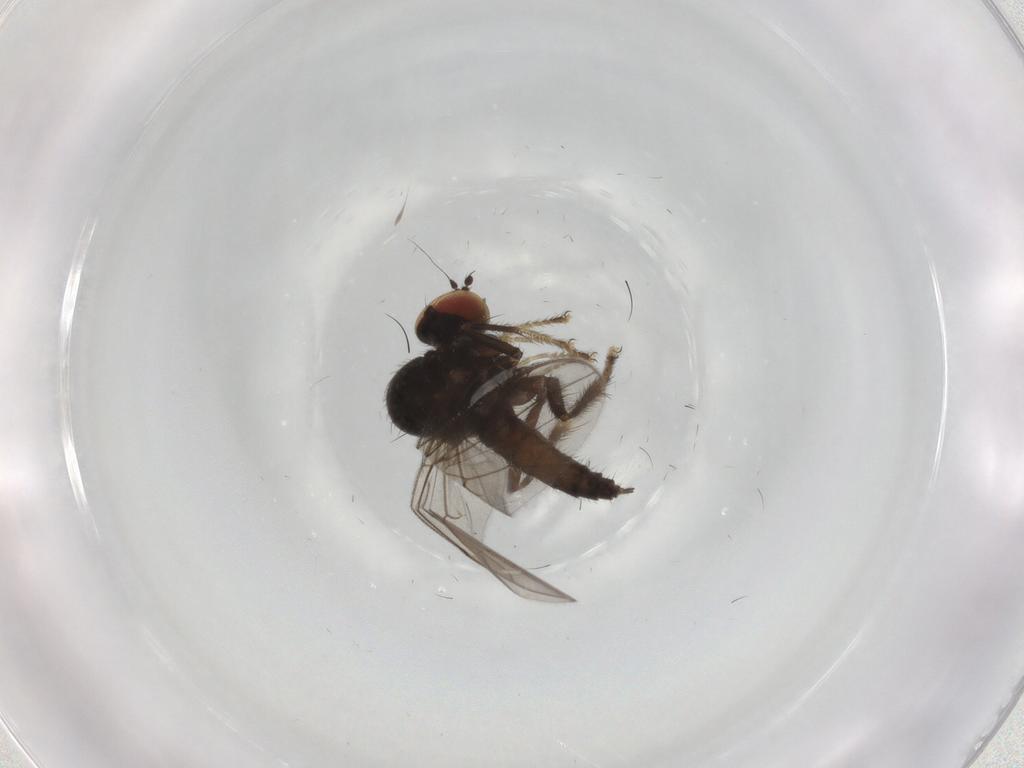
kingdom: Animalia
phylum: Arthropoda
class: Insecta
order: Diptera
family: Hybotidae
